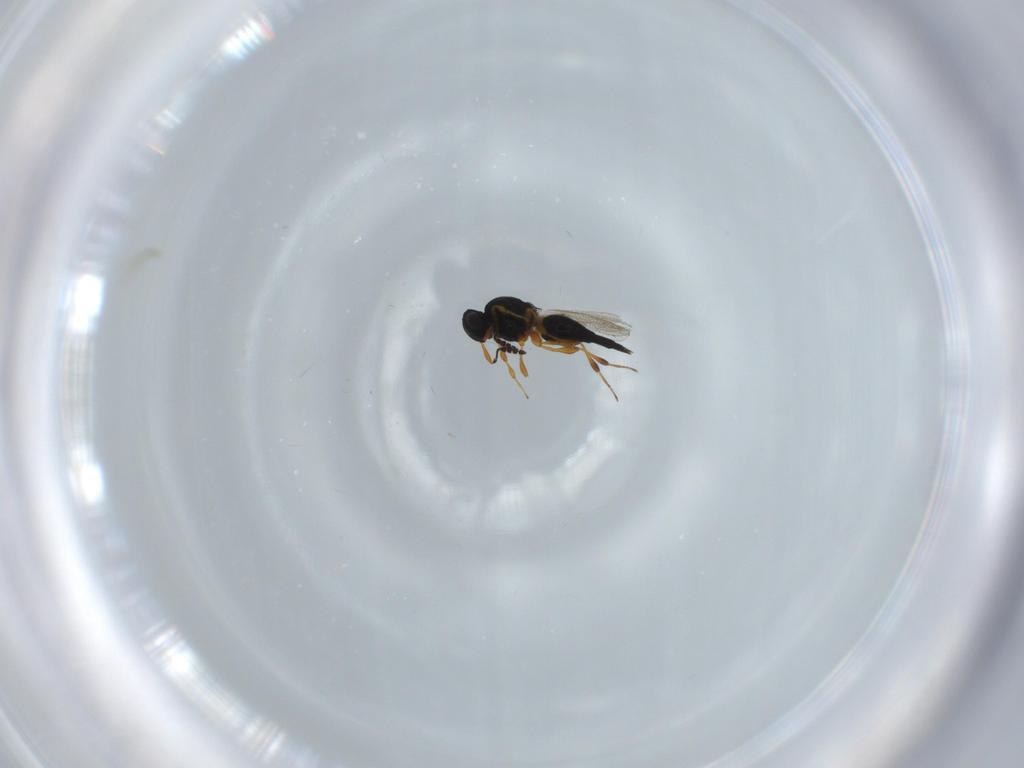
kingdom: Animalia
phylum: Arthropoda
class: Insecta
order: Hymenoptera
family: Platygastridae
